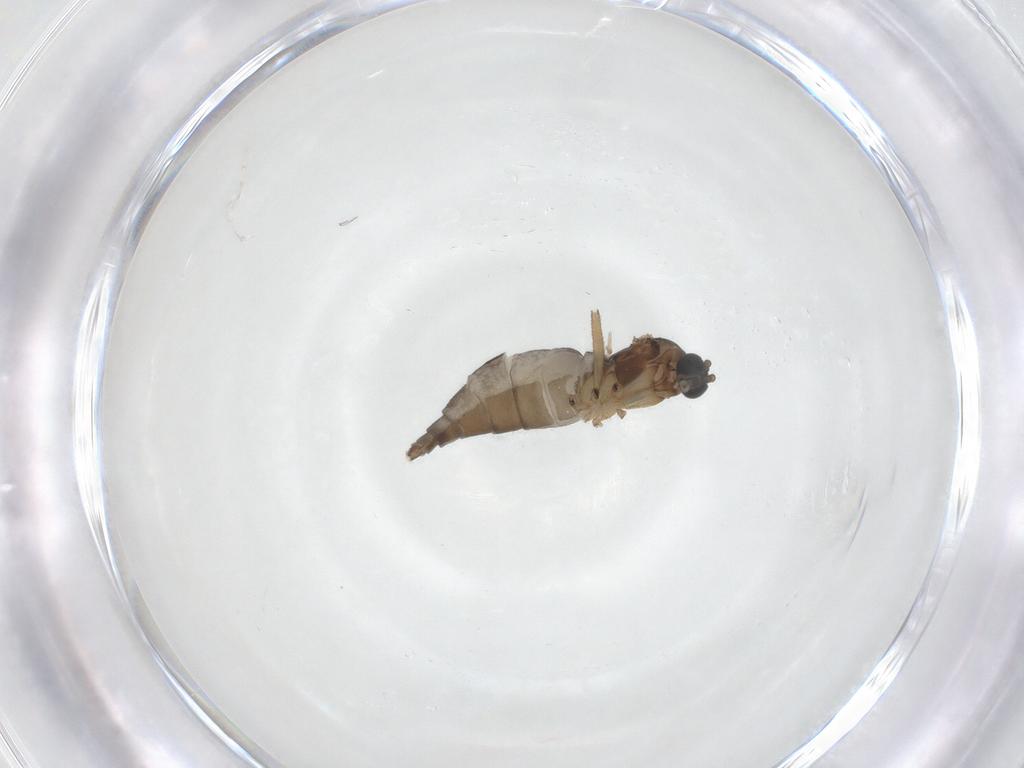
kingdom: Animalia
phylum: Arthropoda
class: Insecta
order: Diptera
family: Sciaridae
